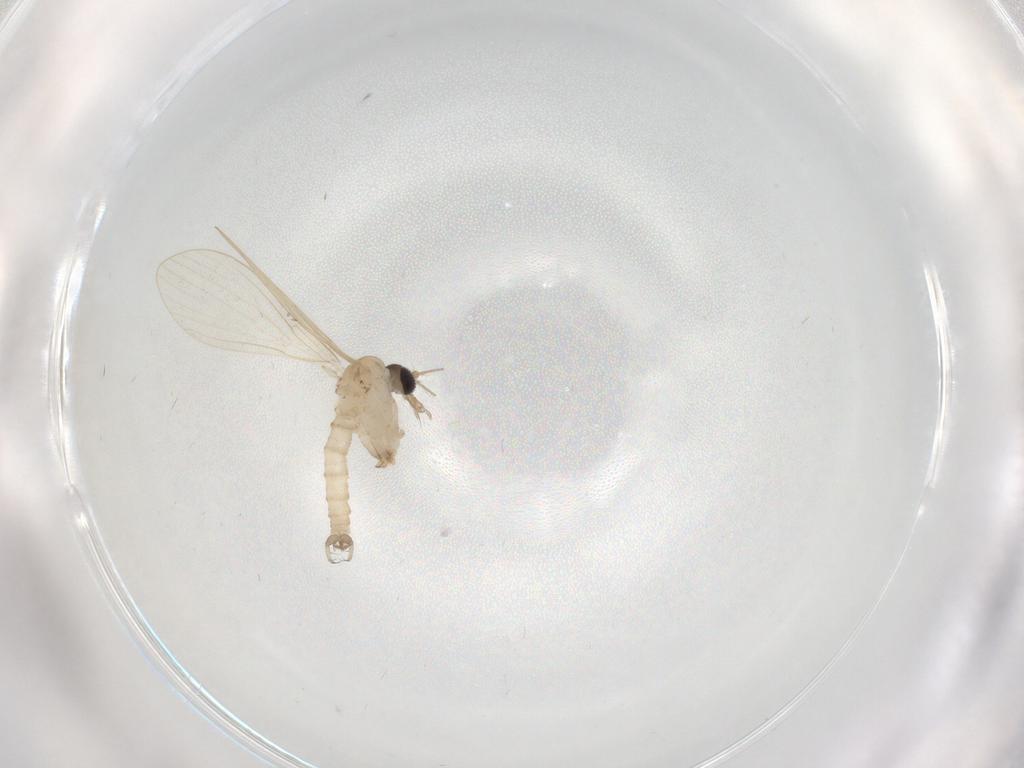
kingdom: Animalia
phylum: Arthropoda
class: Insecta
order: Diptera
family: Psychodidae
